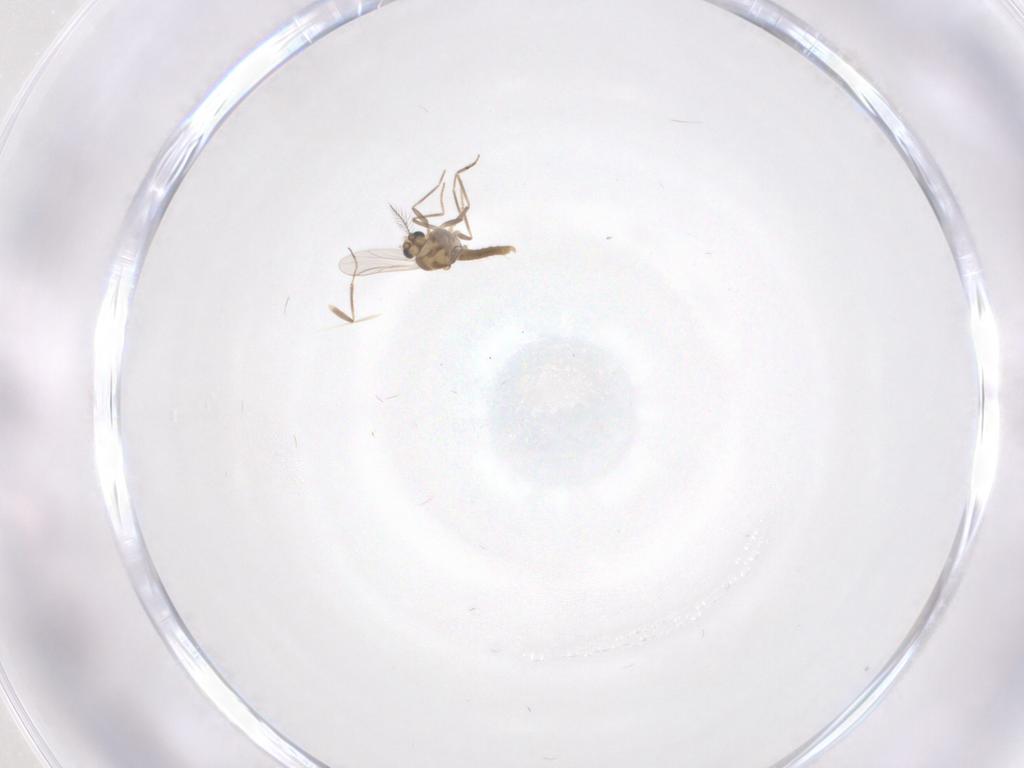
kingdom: Animalia
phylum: Arthropoda
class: Insecta
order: Diptera
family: Chironomidae
